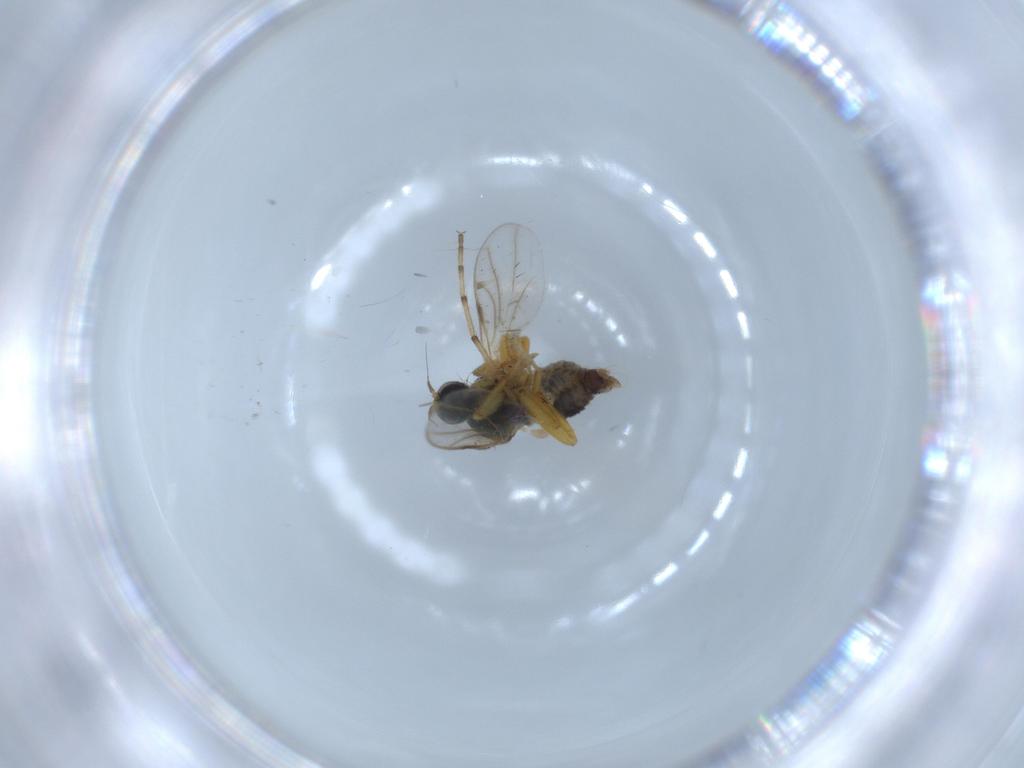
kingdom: Animalia
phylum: Arthropoda
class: Insecta
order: Diptera
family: Hybotidae
